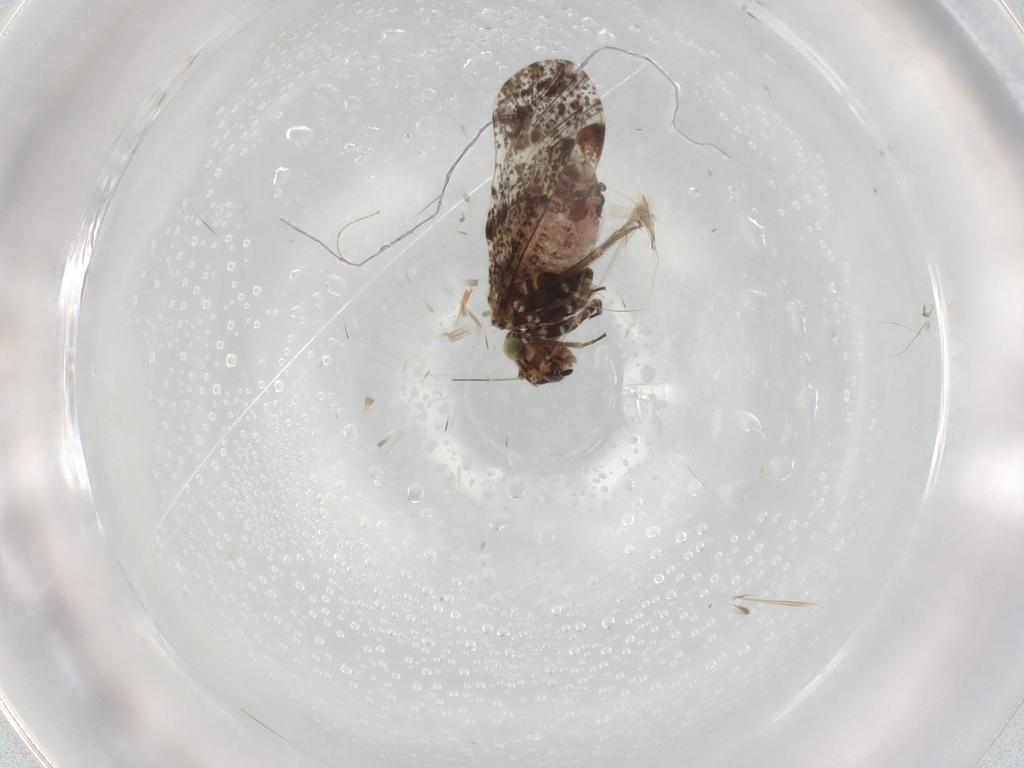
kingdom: Animalia
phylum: Arthropoda
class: Insecta
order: Psocodea
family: Psocidae
